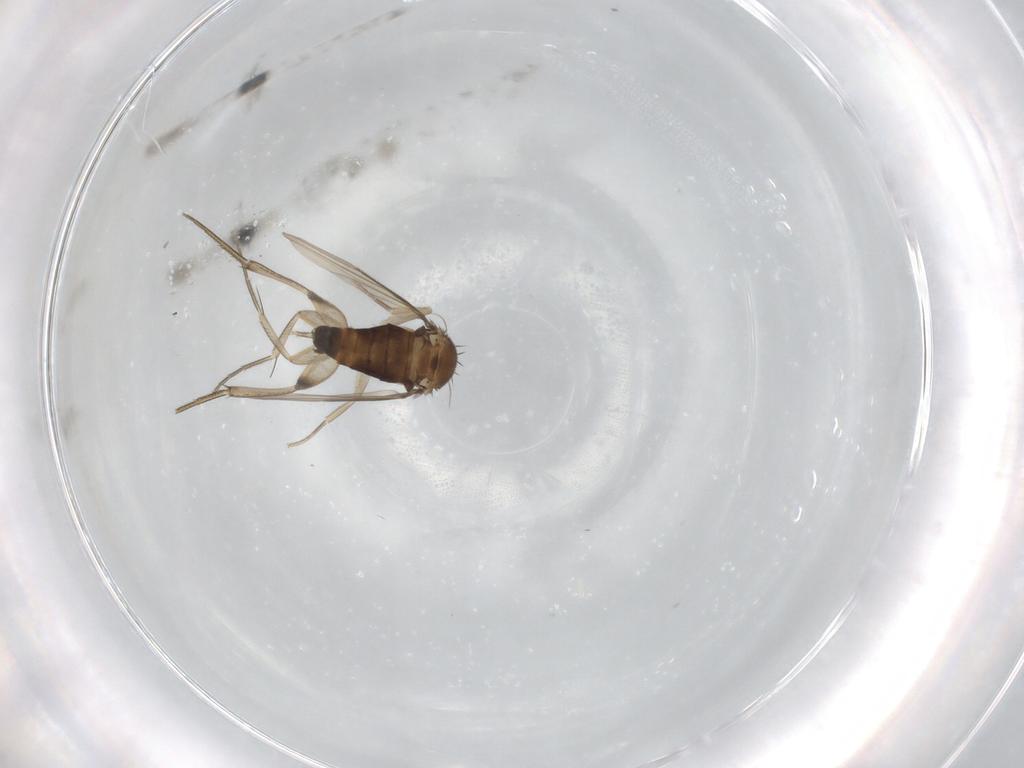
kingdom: Animalia
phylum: Arthropoda
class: Insecta
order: Diptera
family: Phoridae
